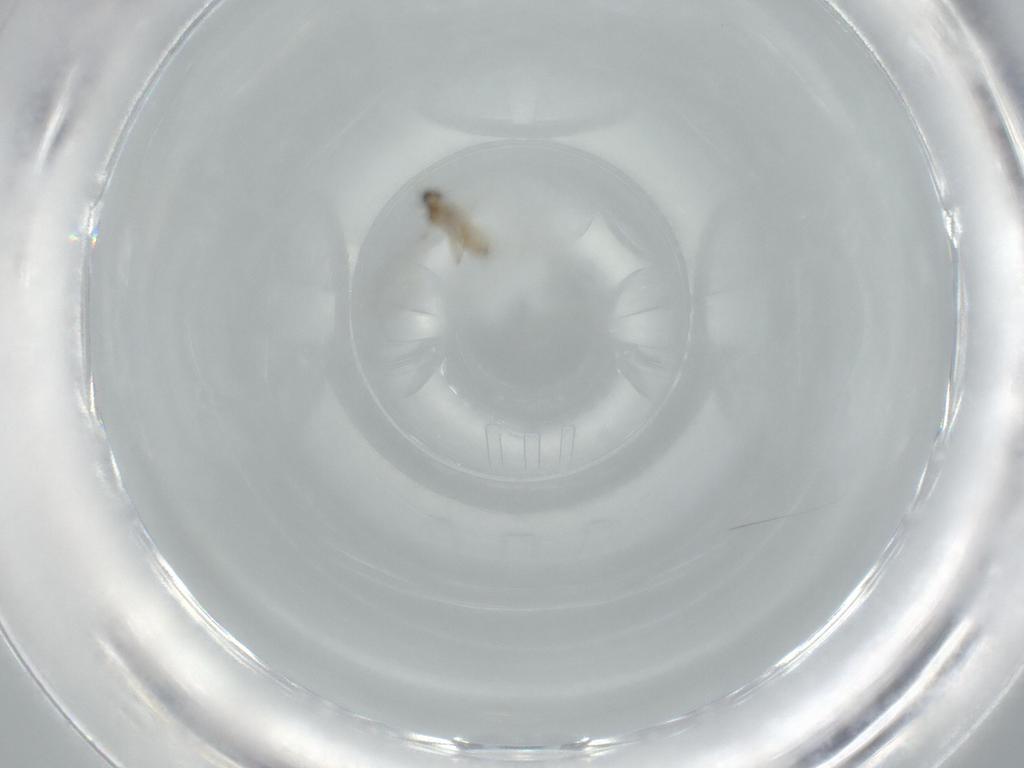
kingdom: Animalia
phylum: Arthropoda
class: Insecta
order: Diptera
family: Cecidomyiidae
